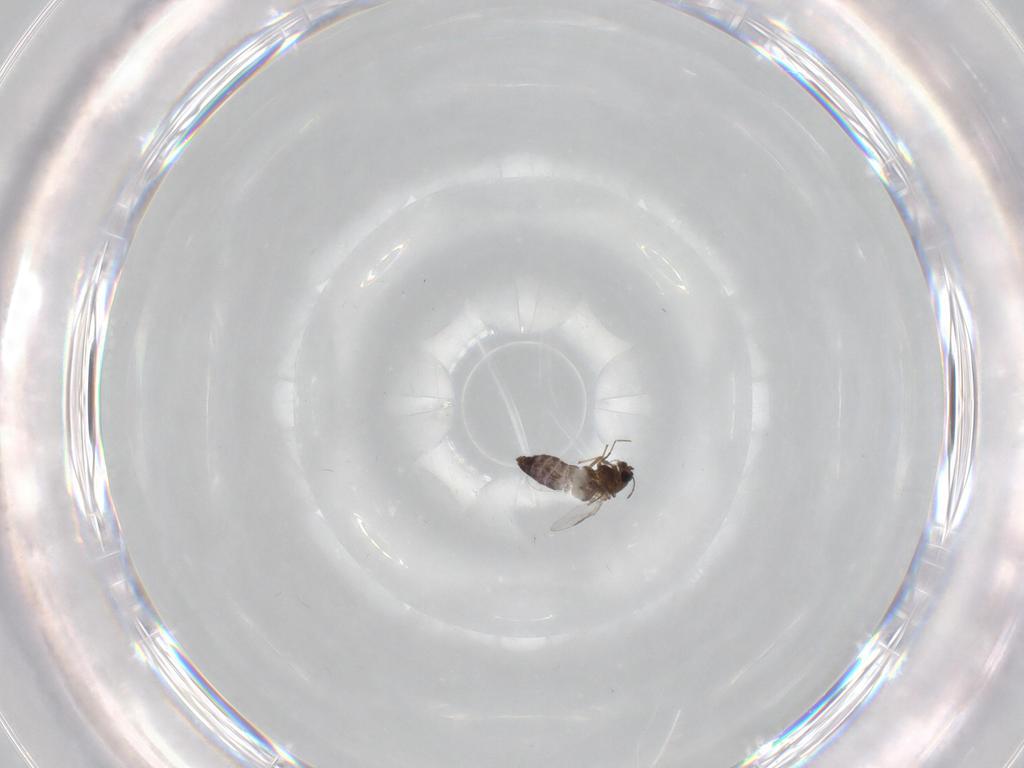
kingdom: Animalia
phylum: Arthropoda
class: Insecta
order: Diptera
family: Chironomidae
